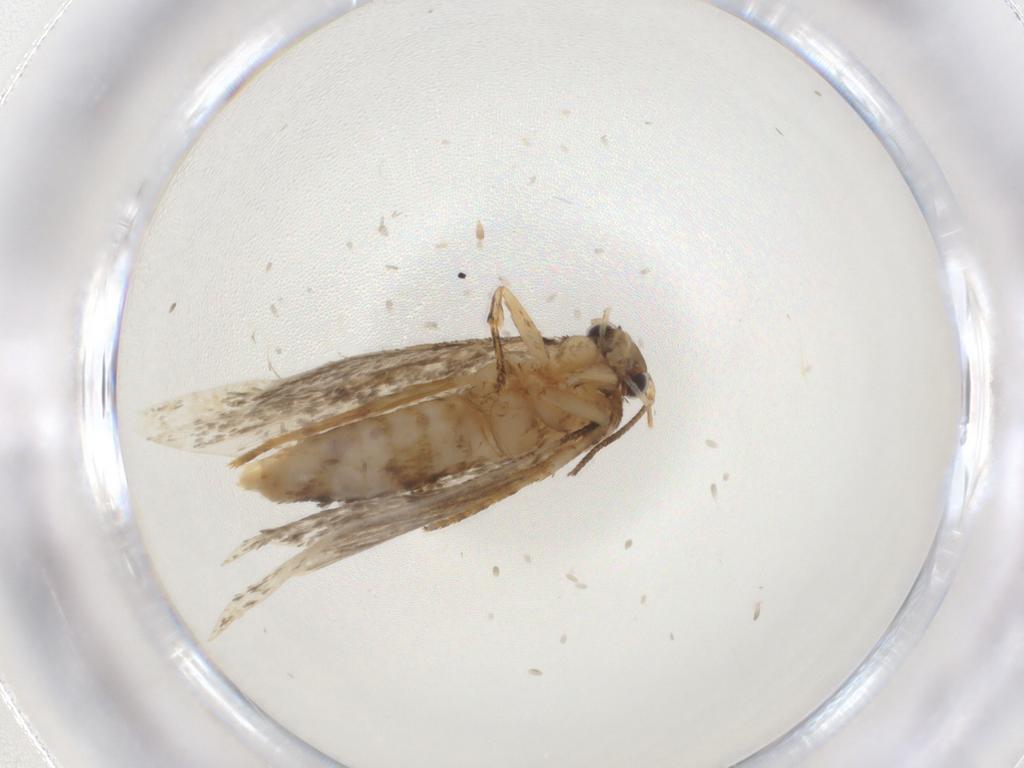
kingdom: Animalia
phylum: Arthropoda
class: Insecta
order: Lepidoptera
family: Crambidae
